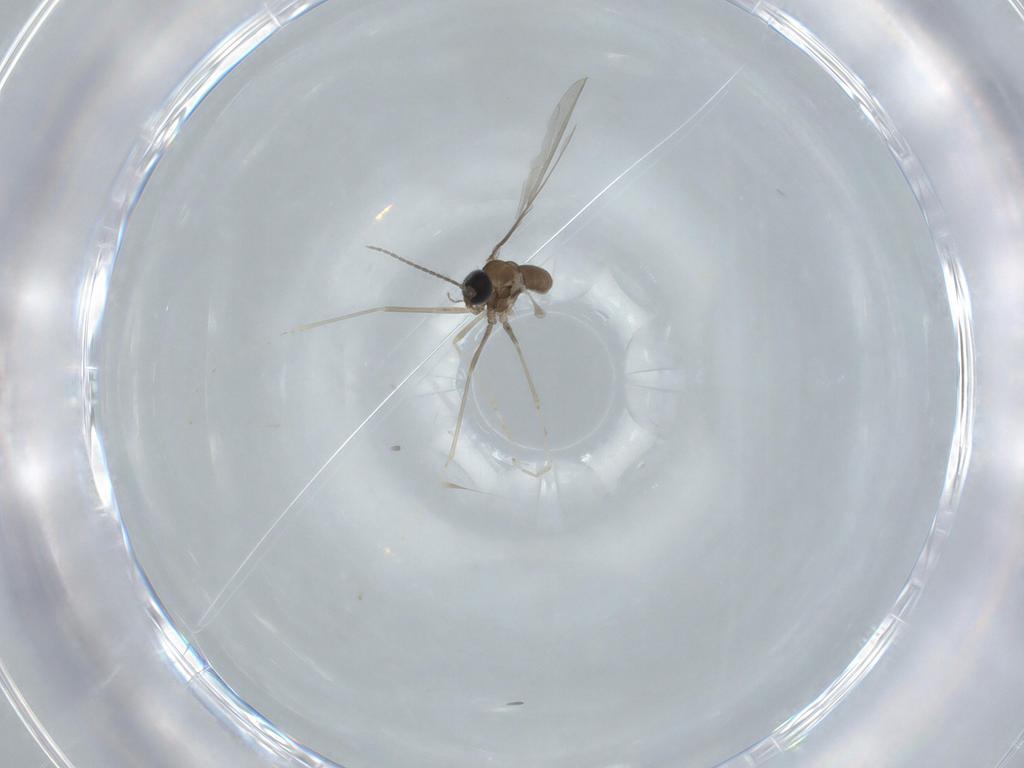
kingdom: Animalia
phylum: Arthropoda
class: Insecta
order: Diptera
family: Cecidomyiidae
